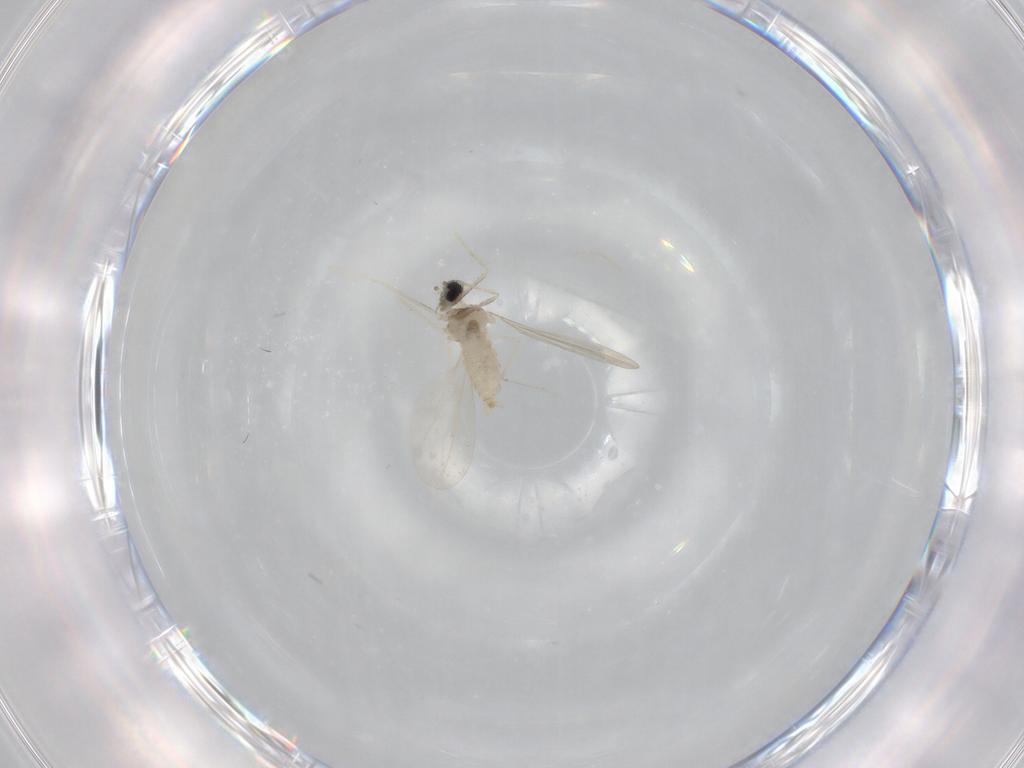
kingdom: Animalia
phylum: Arthropoda
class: Insecta
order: Diptera
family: Cecidomyiidae
